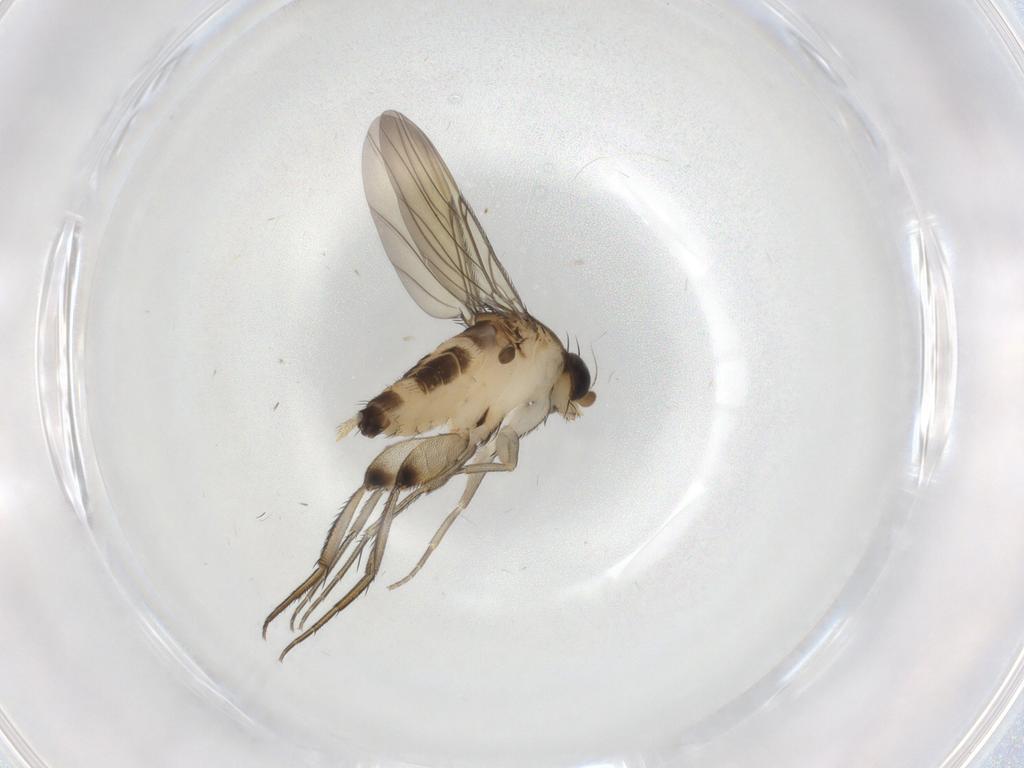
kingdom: Animalia
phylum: Arthropoda
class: Insecta
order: Diptera
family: Phoridae
